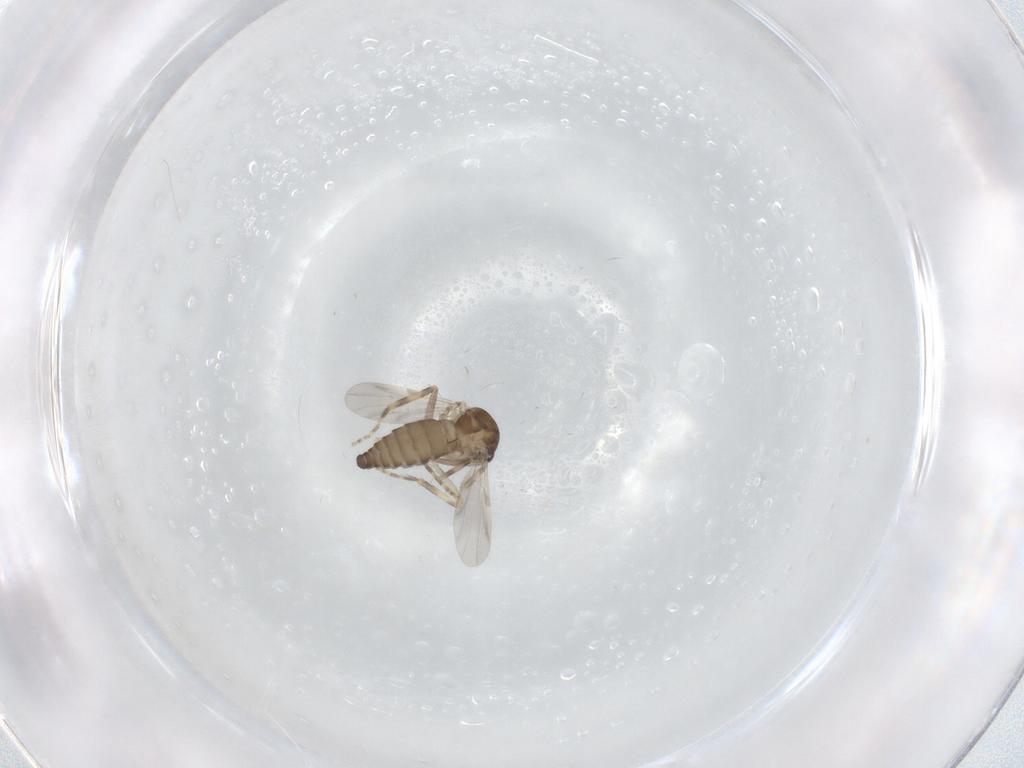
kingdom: Animalia
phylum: Arthropoda
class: Insecta
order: Diptera
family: Ceratopogonidae
